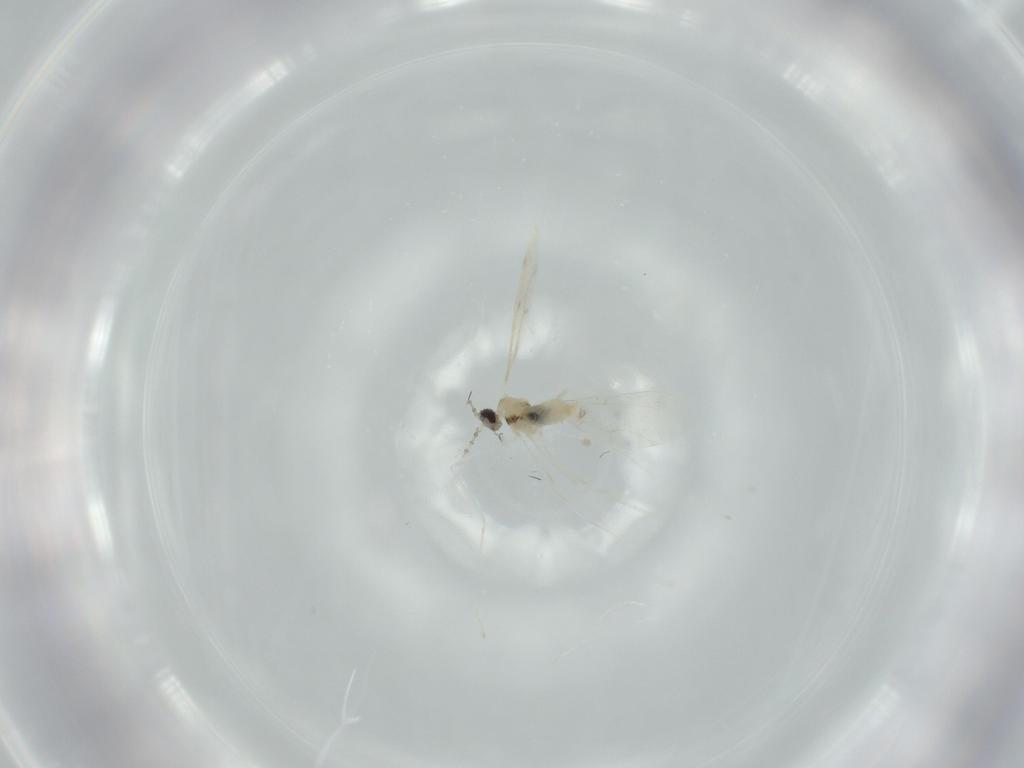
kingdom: Animalia
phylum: Arthropoda
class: Insecta
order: Diptera
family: Cecidomyiidae
